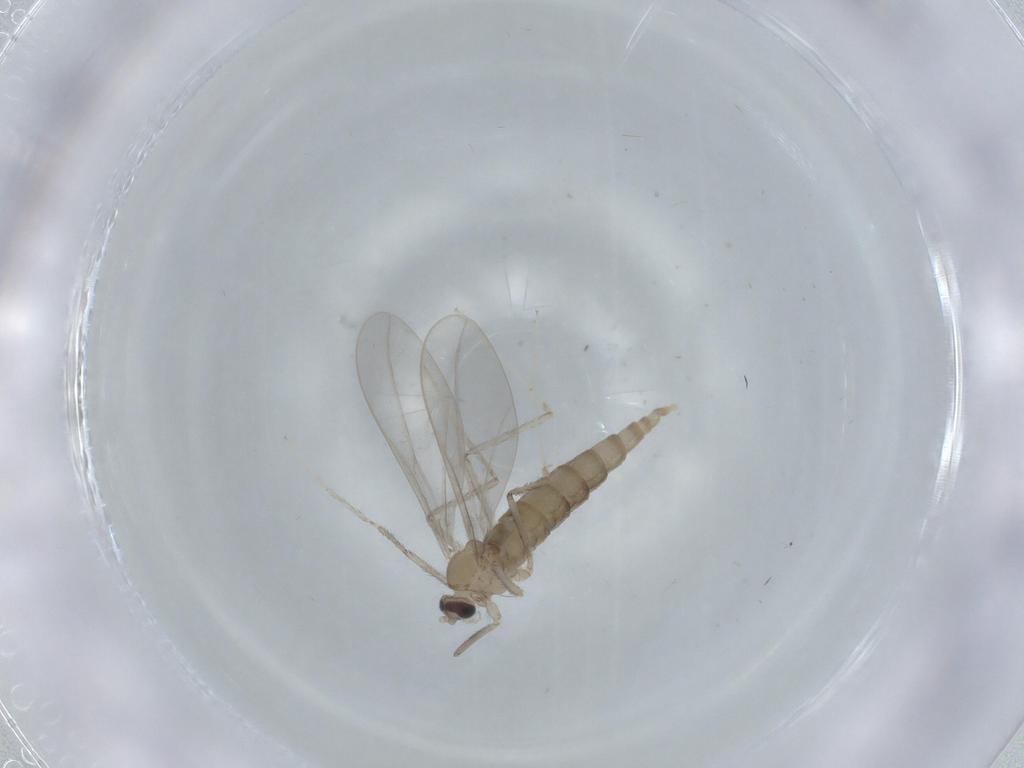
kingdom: Animalia
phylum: Arthropoda
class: Insecta
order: Diptera
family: Cecidomyiidae
